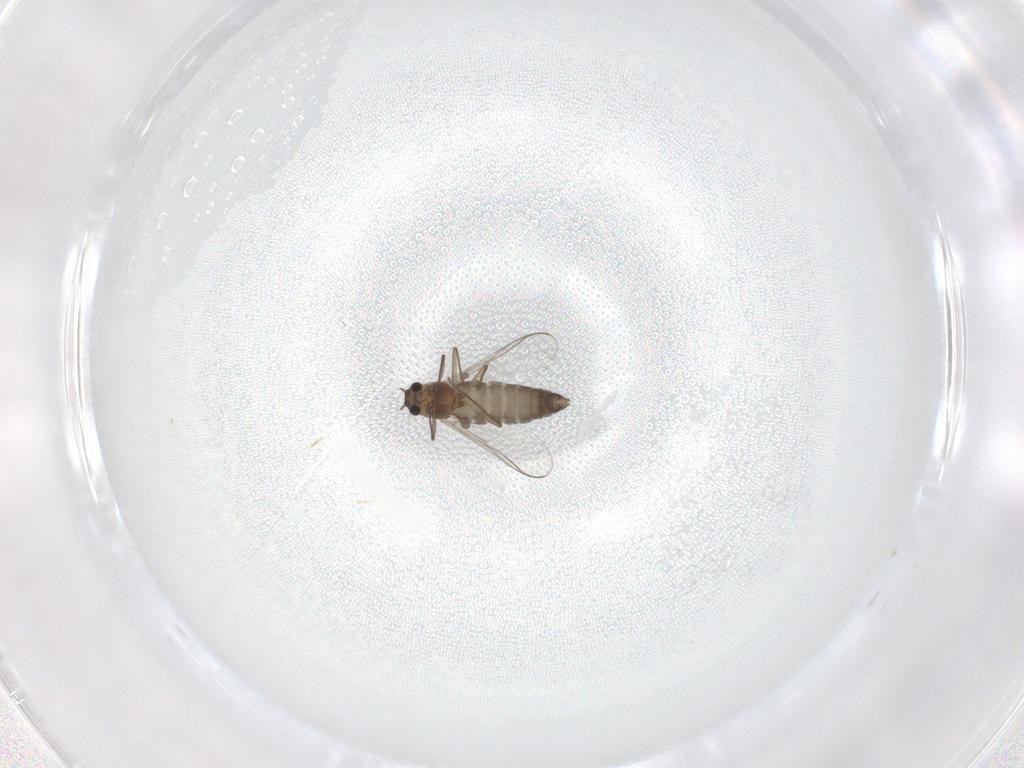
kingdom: Animalia
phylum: Arthropoda
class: Insecta
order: Diptera
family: Chironomidae
